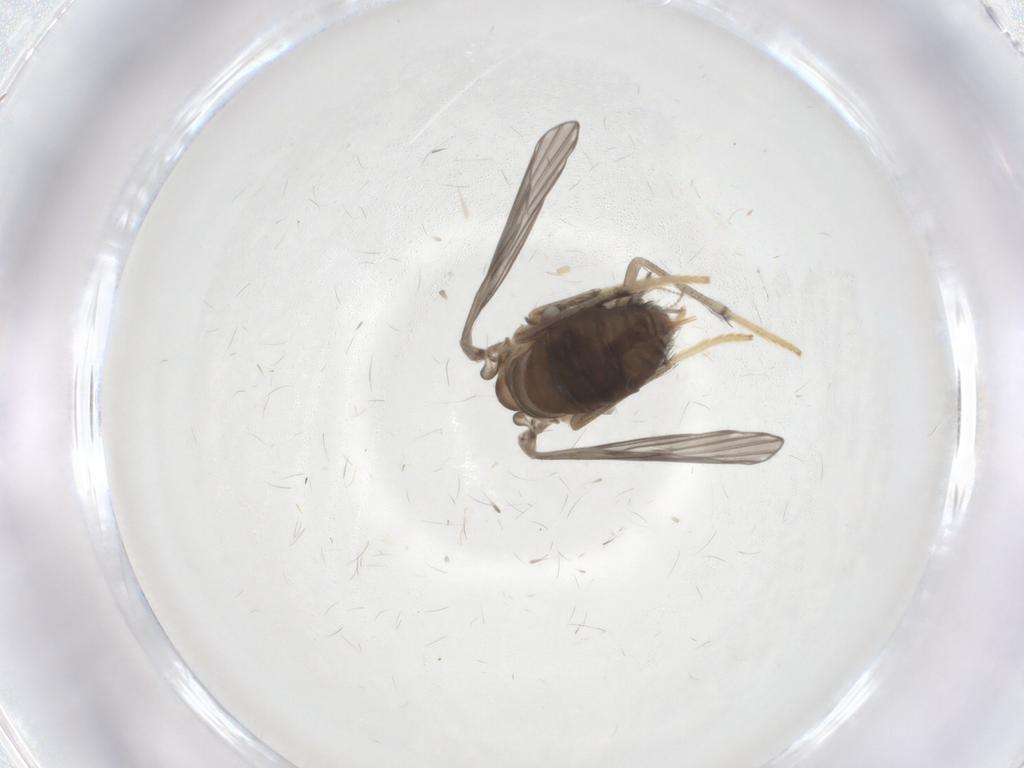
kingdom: Animalia
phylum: Arthropoda
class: Insecta
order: Diptera
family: Psychodidae
